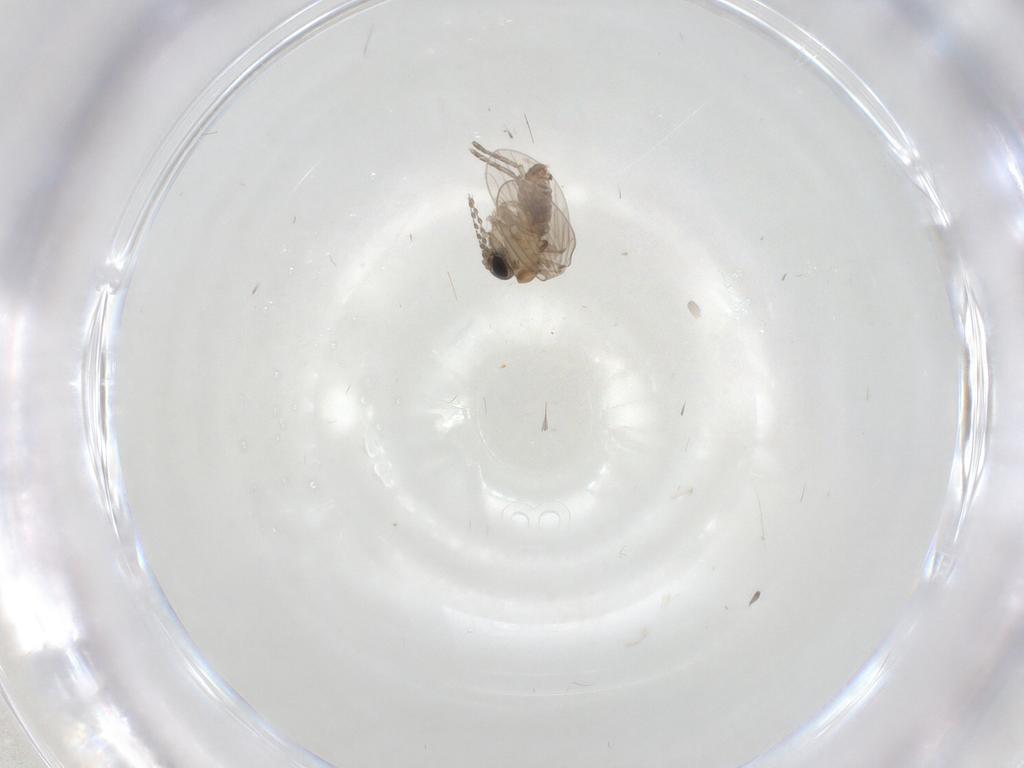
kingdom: Animalia
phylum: Arthropoda
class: Insecta
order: Diptera
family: Psychodidae
